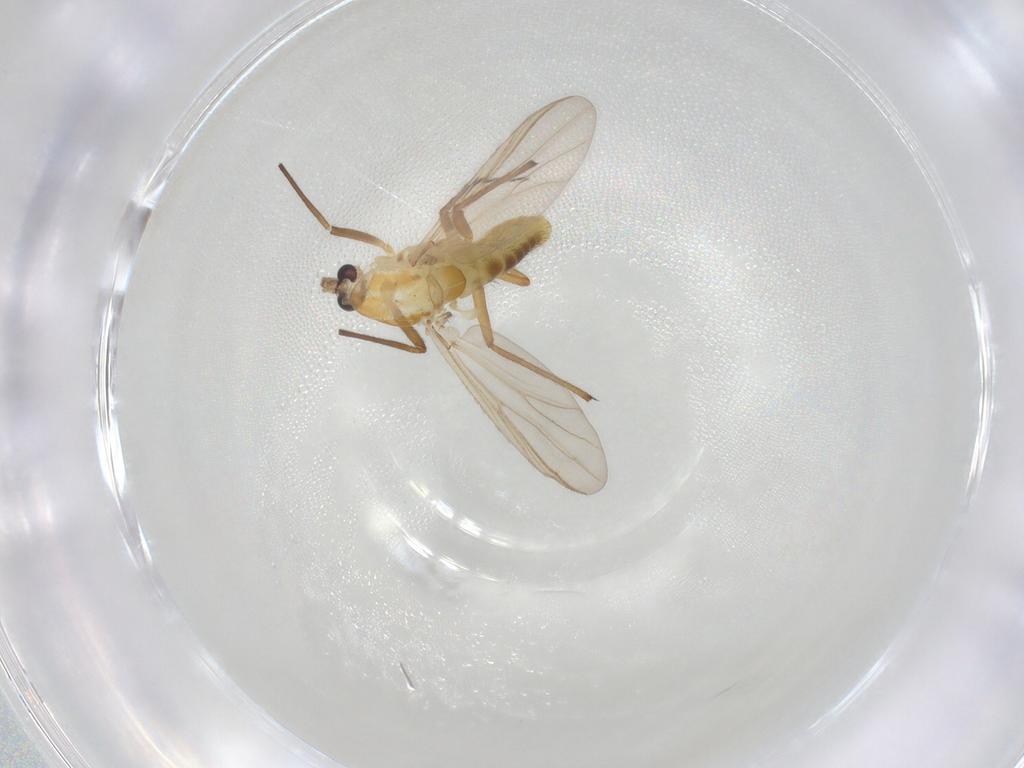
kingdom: Animalia
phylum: Arthropoda
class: Insecta
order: Diptera
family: Chironomidae
